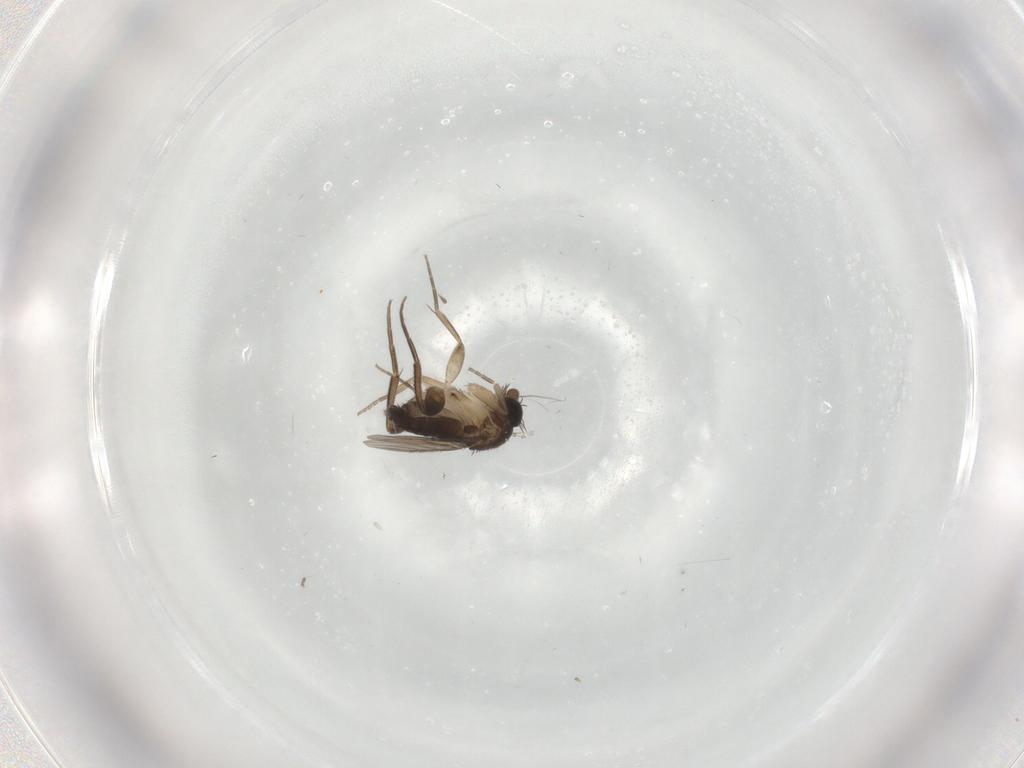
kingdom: Animalia
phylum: Arthropoda
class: Insecta
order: Diptera
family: Phoridae
